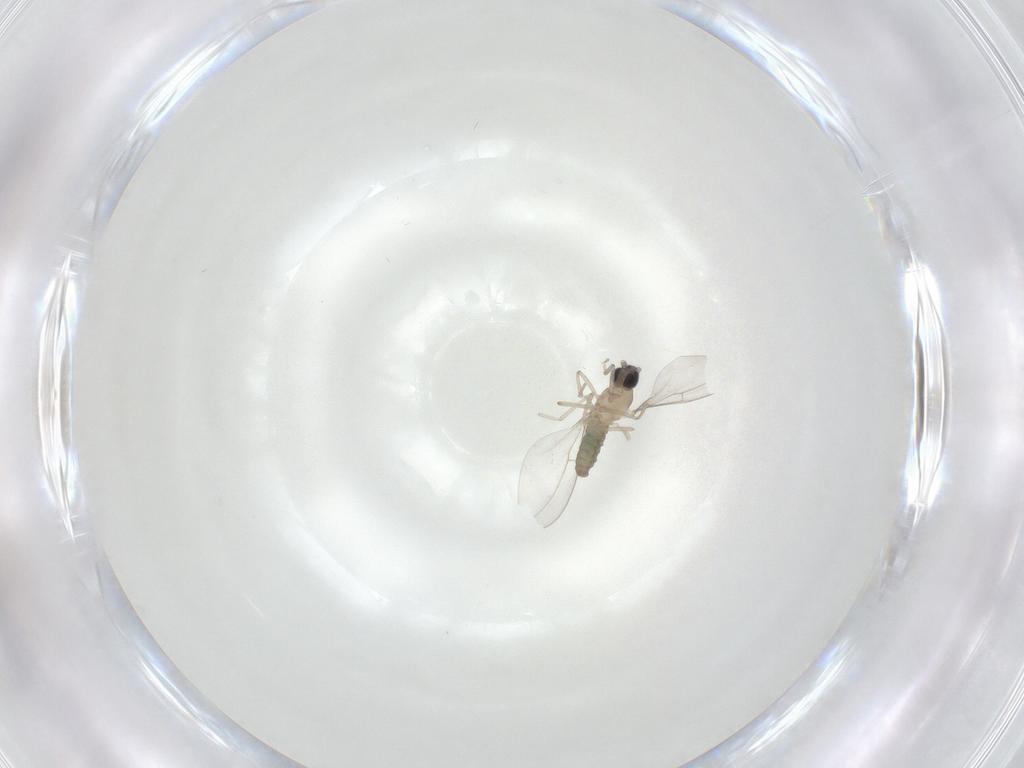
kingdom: Animalia
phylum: Arthropoda
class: Insecta
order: Diptera
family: Cecidomyiidae
